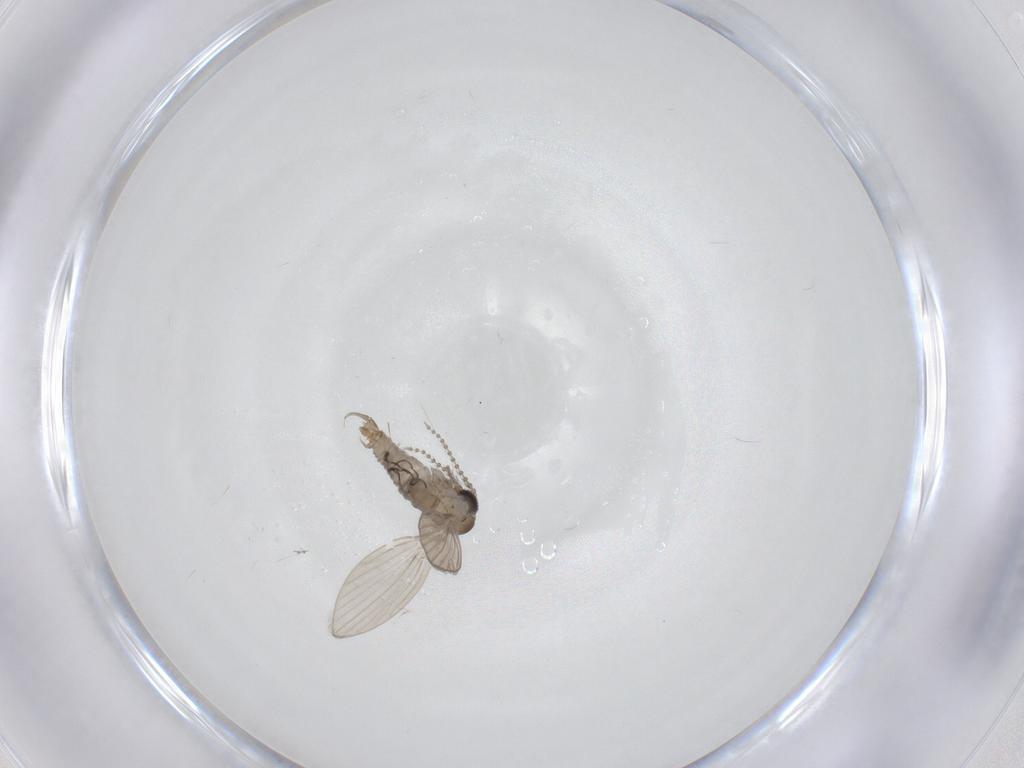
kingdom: Animalia
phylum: Arthropoda
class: Insecta
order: Diptera
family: Psychodidae
